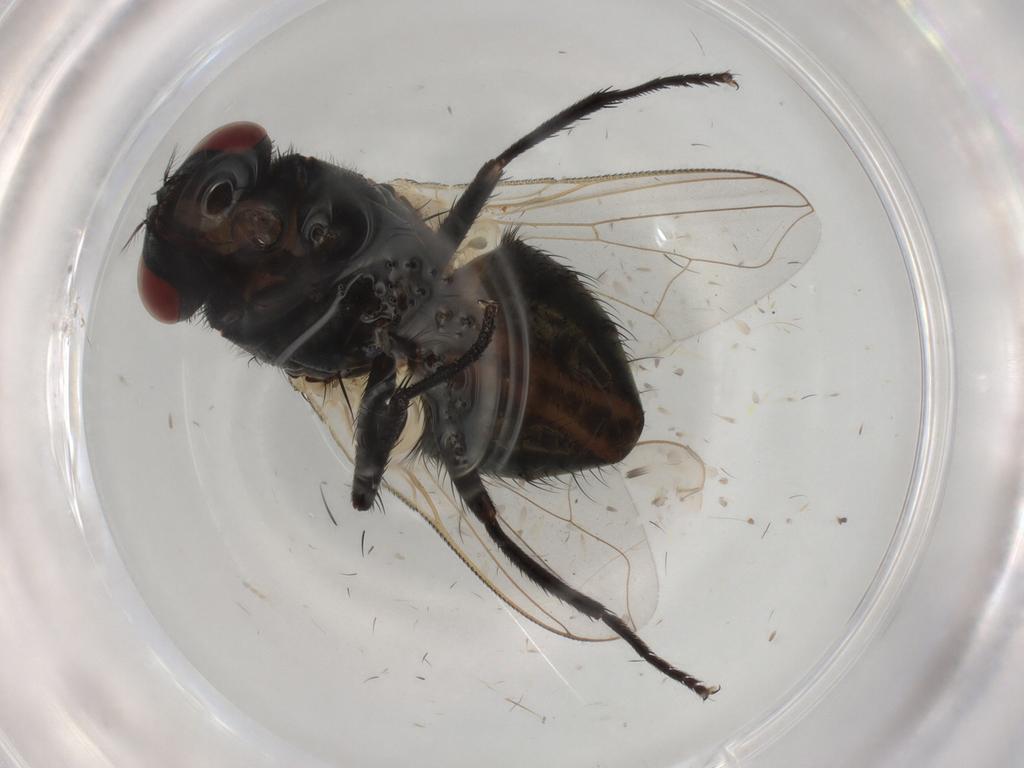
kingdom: Animalia
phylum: Arthropoda
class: Insecta
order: Diptera
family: Muscidae
